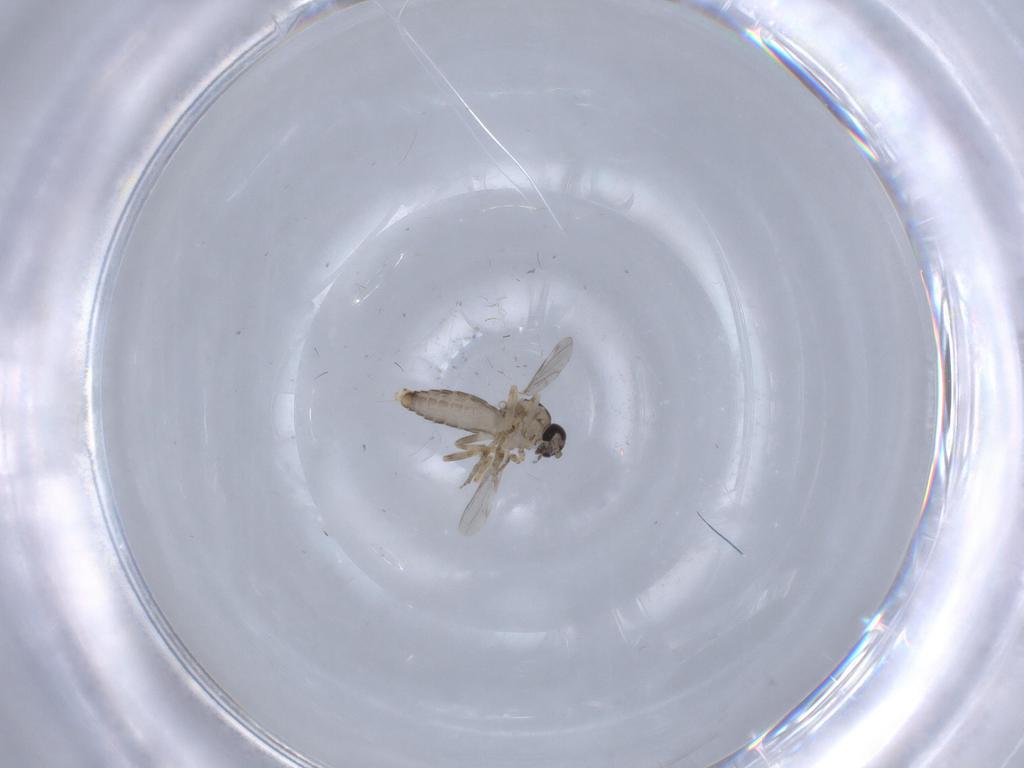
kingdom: Animalia
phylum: Arthropoda
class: Insecta
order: Diptera
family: Ceratopogonidae
